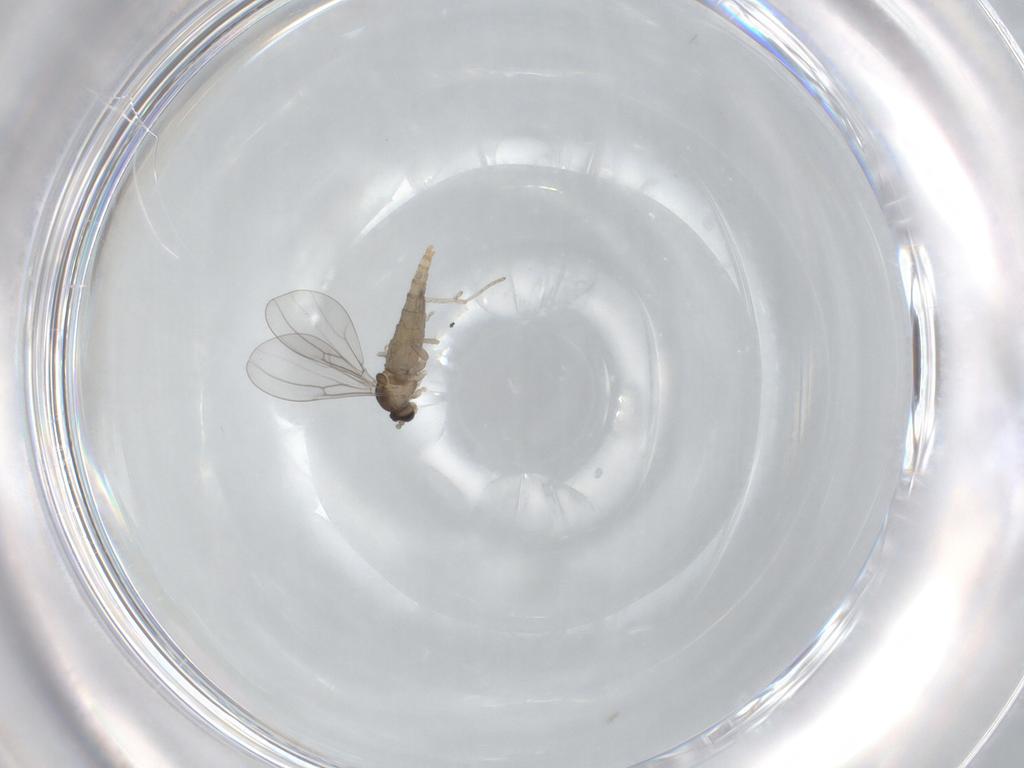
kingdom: Animalia
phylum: Arthropoda
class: Insecta
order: Diptera
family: Cecidomyiidae
